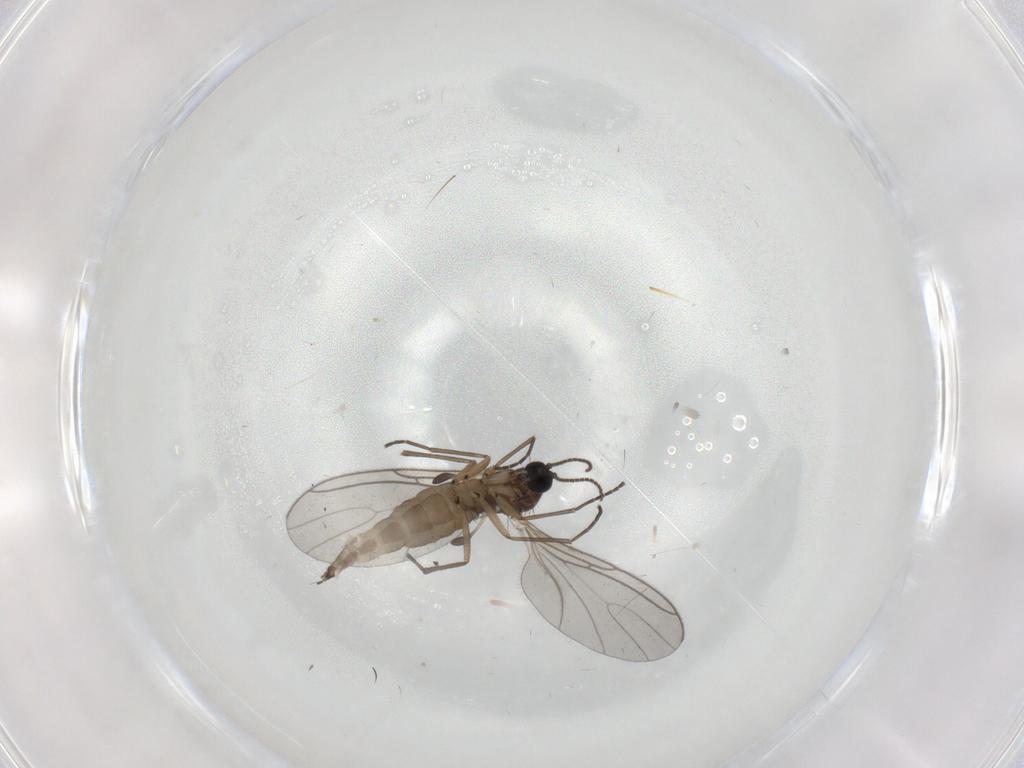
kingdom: Animalia
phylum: Arthropoda
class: Insecta
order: Diptera
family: Sciaridae
